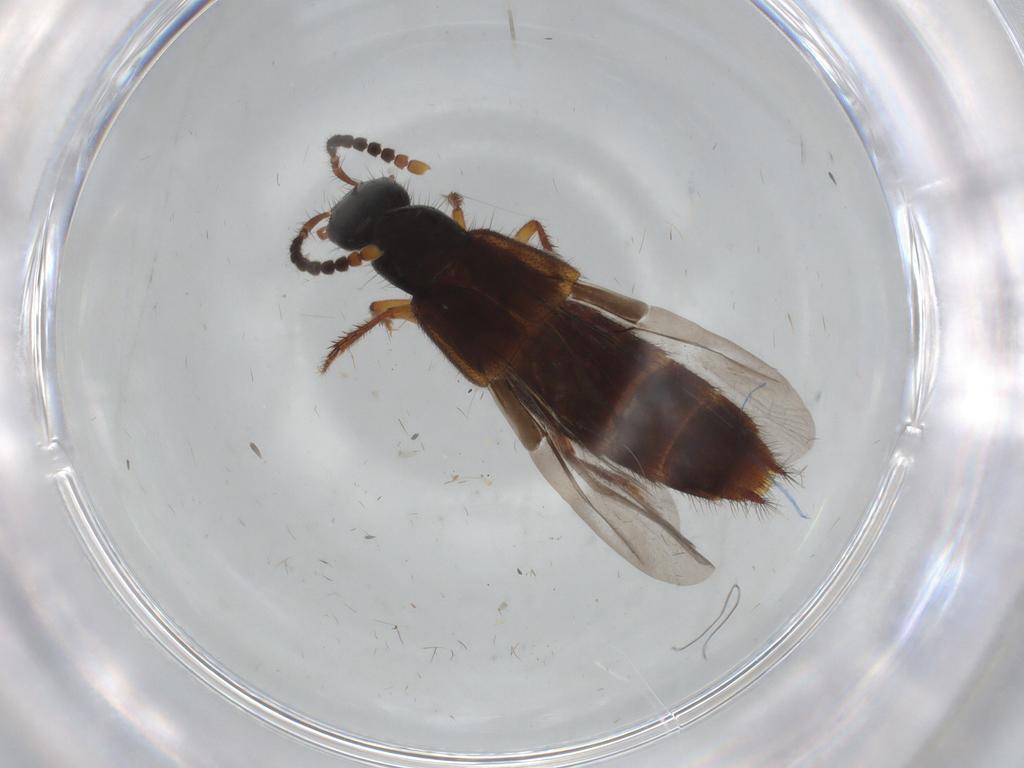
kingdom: Animalia
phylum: Arthropoda
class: Insecta
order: Coleoptera
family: Staphylinidae
